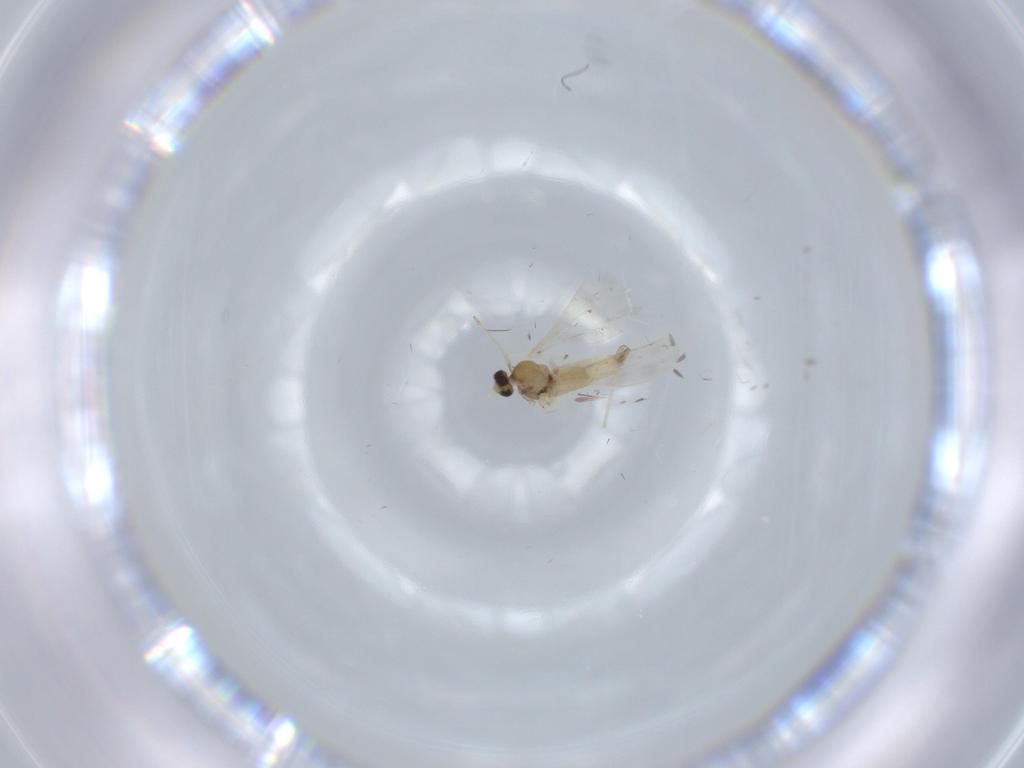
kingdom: Animalia
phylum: Arthropoda
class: Insecta
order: Diptera
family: Cecidomyiidae
